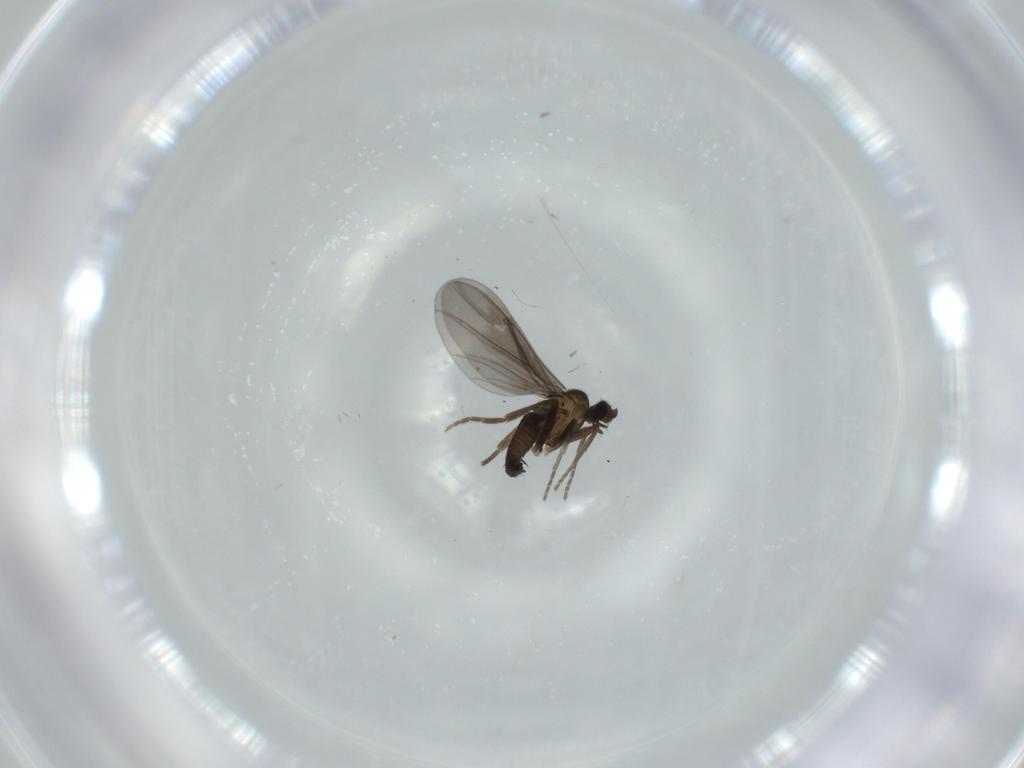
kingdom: Animalia
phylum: Arthropoda
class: Insecta
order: Diptera
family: Phoridae
